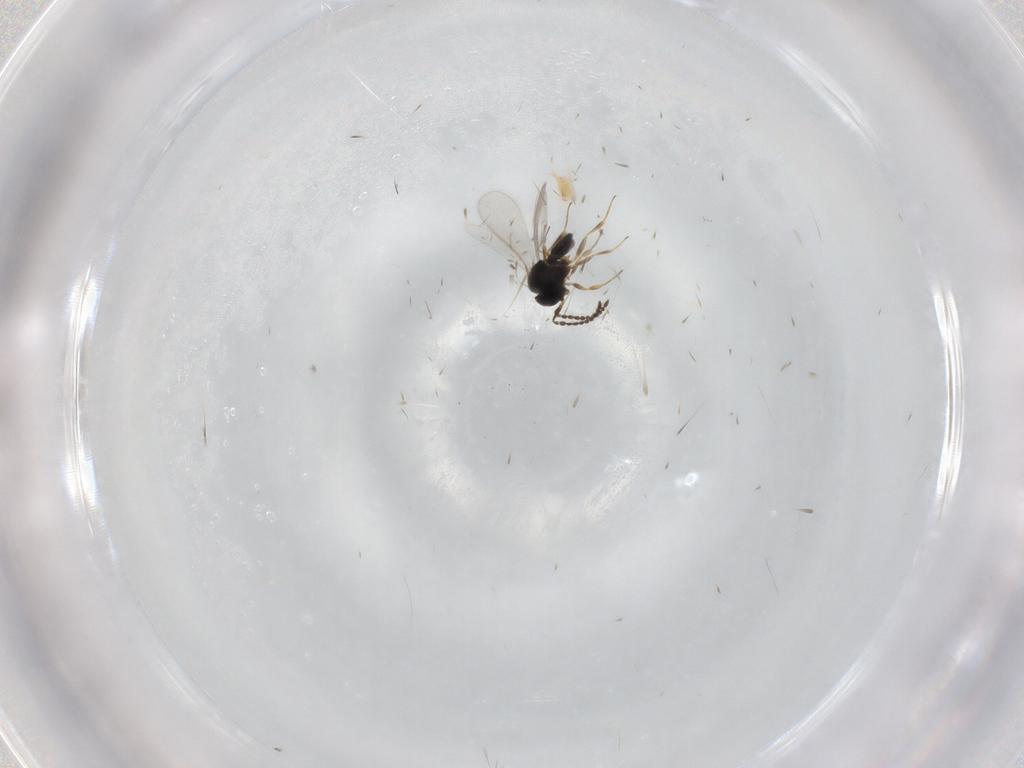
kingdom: Animalia
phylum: Arthropoda
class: Insecta
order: Hymenoptera
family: Scelionidae
